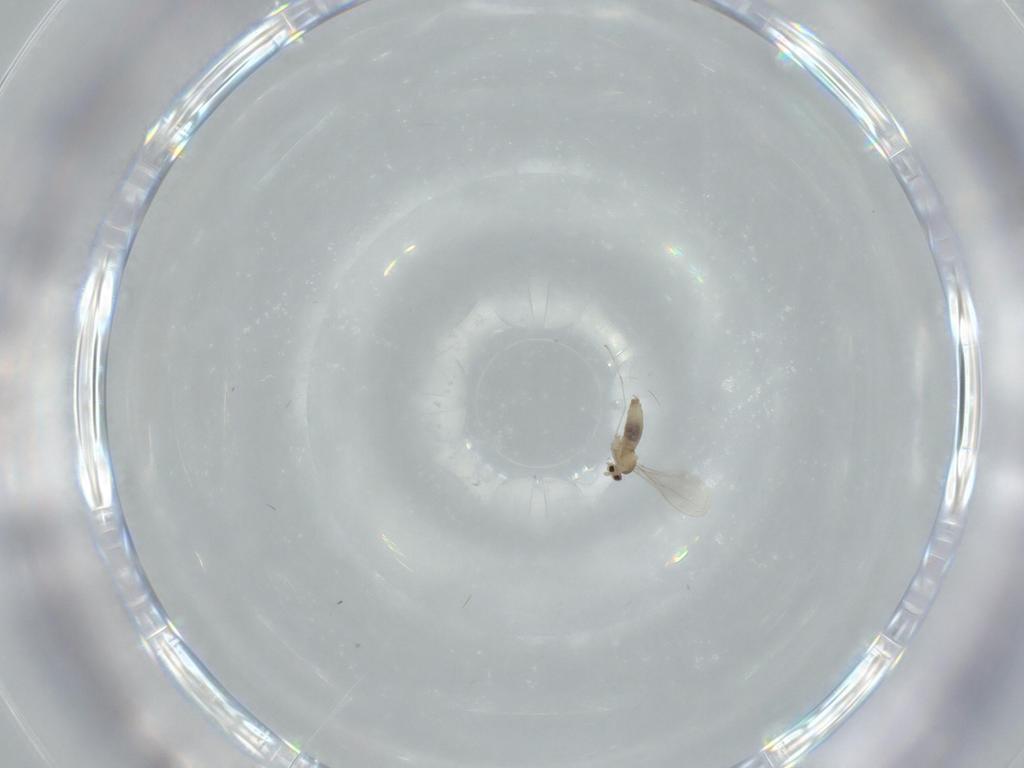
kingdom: Animalia
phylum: Arthropoda
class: Insecta
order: Diptera
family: Cecidomyiidae
